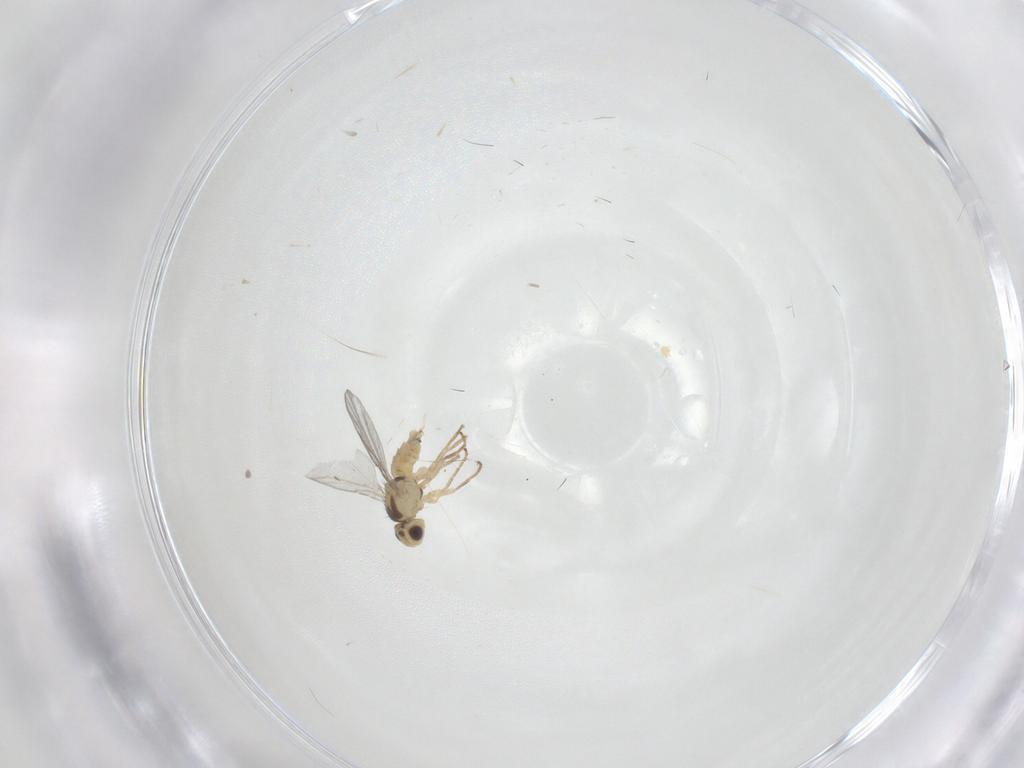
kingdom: Animalia
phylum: Arthropoda
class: Insecta
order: Diptera
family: Agromyzidae
